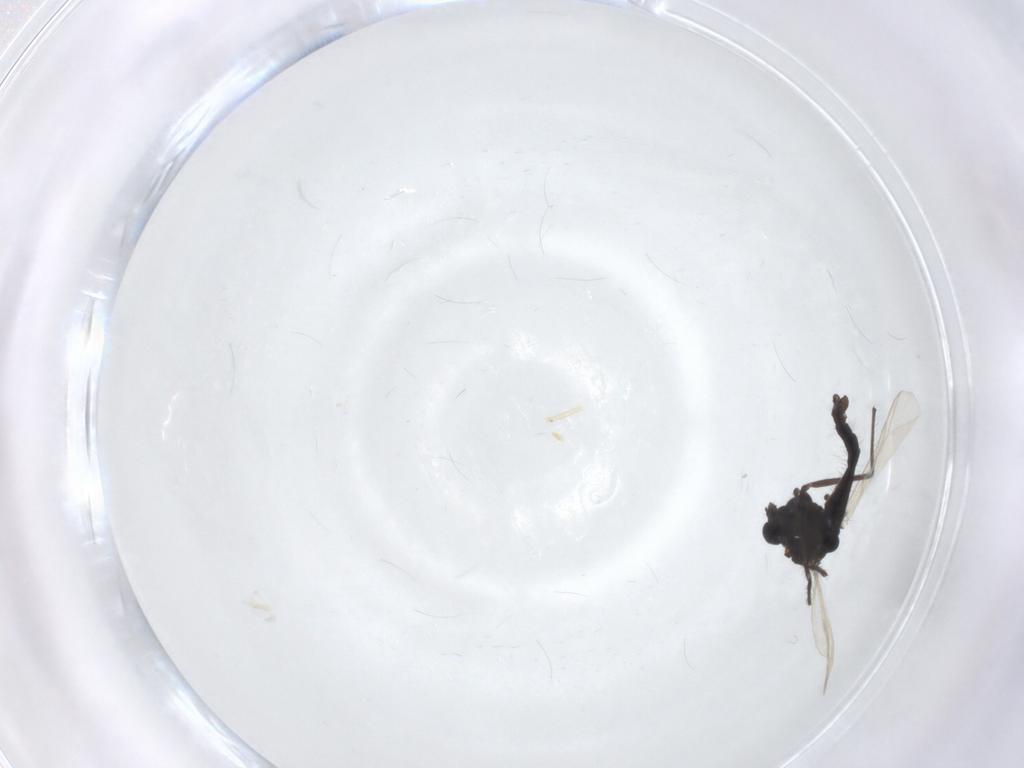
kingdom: Animalia
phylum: Arthropoda
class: Insecta
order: Diptera
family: Chironomidae
